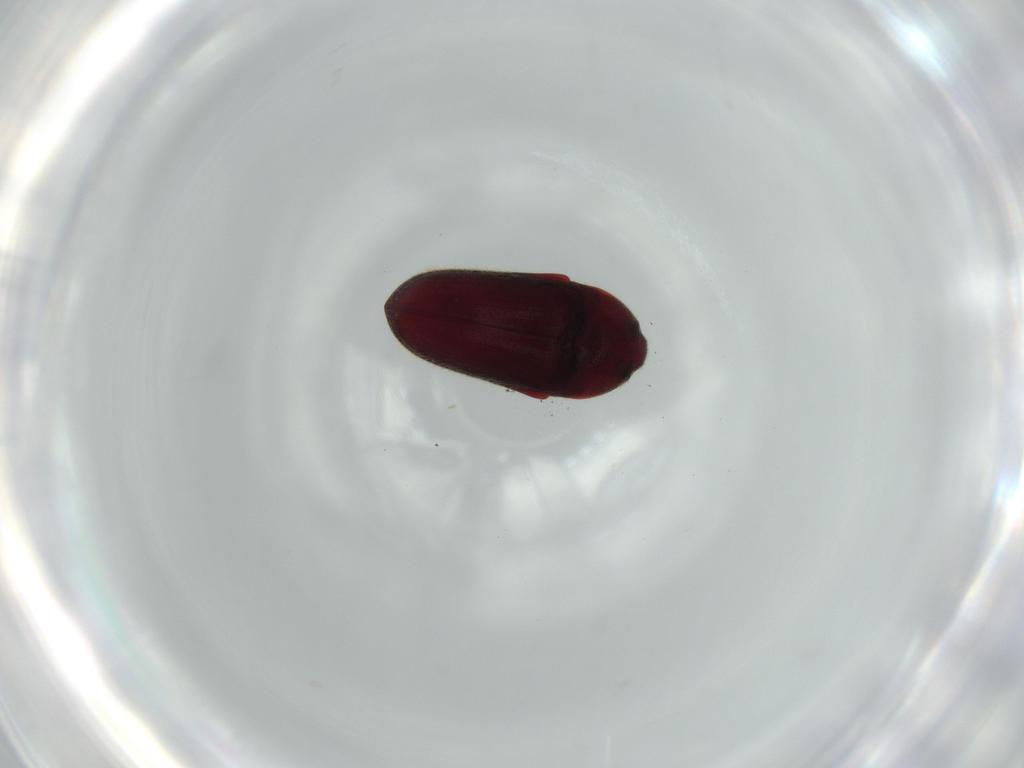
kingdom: Animalia
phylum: Arthropoda
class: Insecta
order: Coleoptera
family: Throscidae
